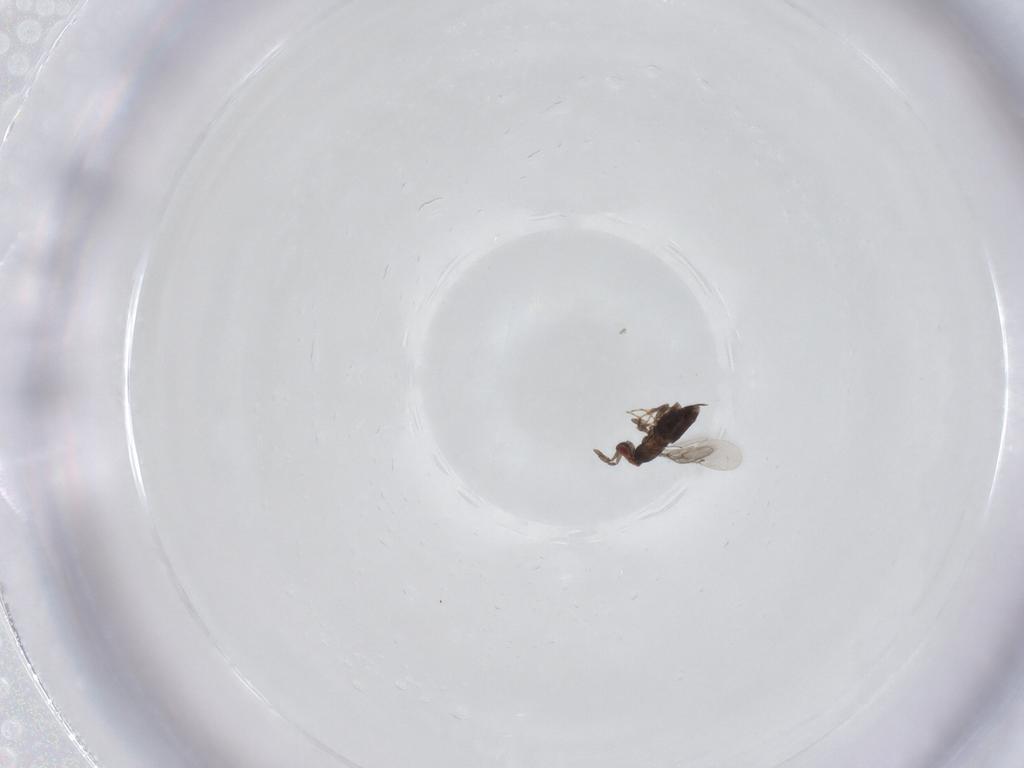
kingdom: Animalia
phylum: Arthropoda
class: Insecta
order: Hymenoptera
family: Trichogrammatidae
